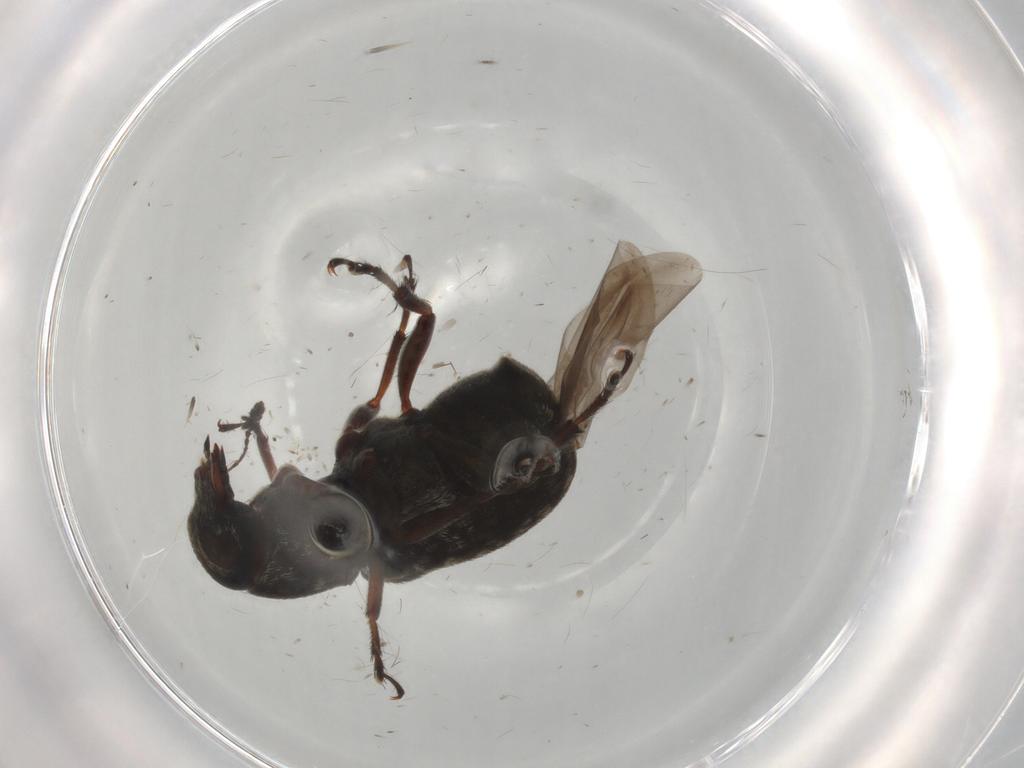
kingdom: Animalia
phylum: Arthropoda
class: Insecta
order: Coleoptera
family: Anthribidae
